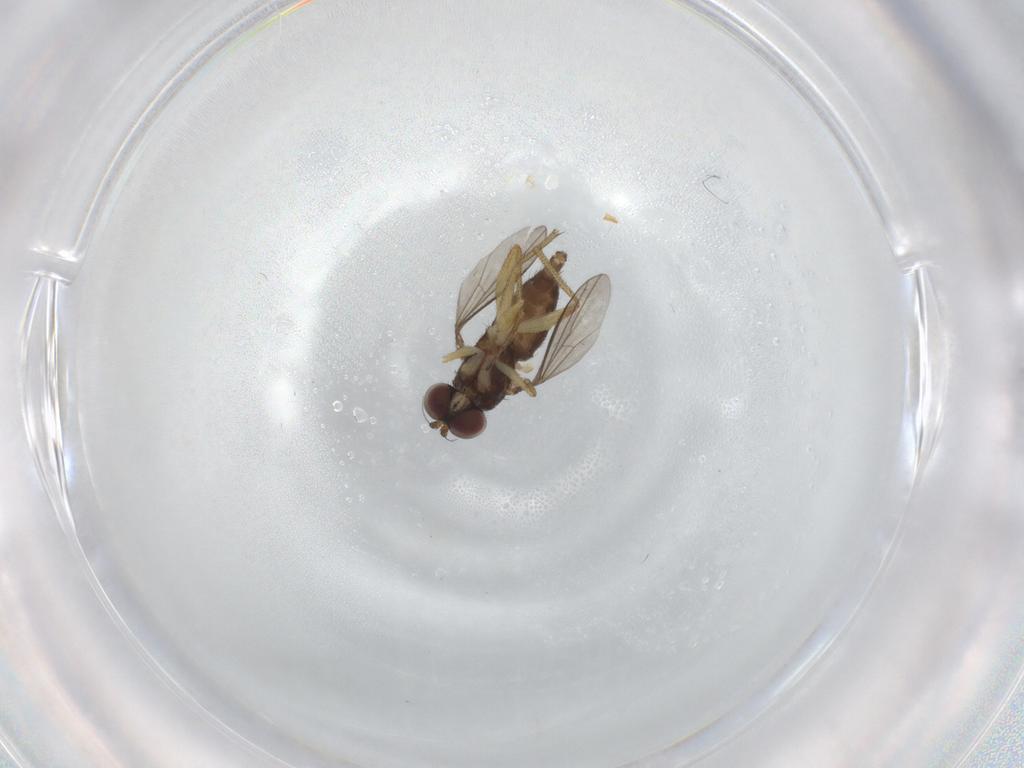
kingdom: Animalia
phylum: Arthropoda
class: Insecta
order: Diptera
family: Dolichopodidae
